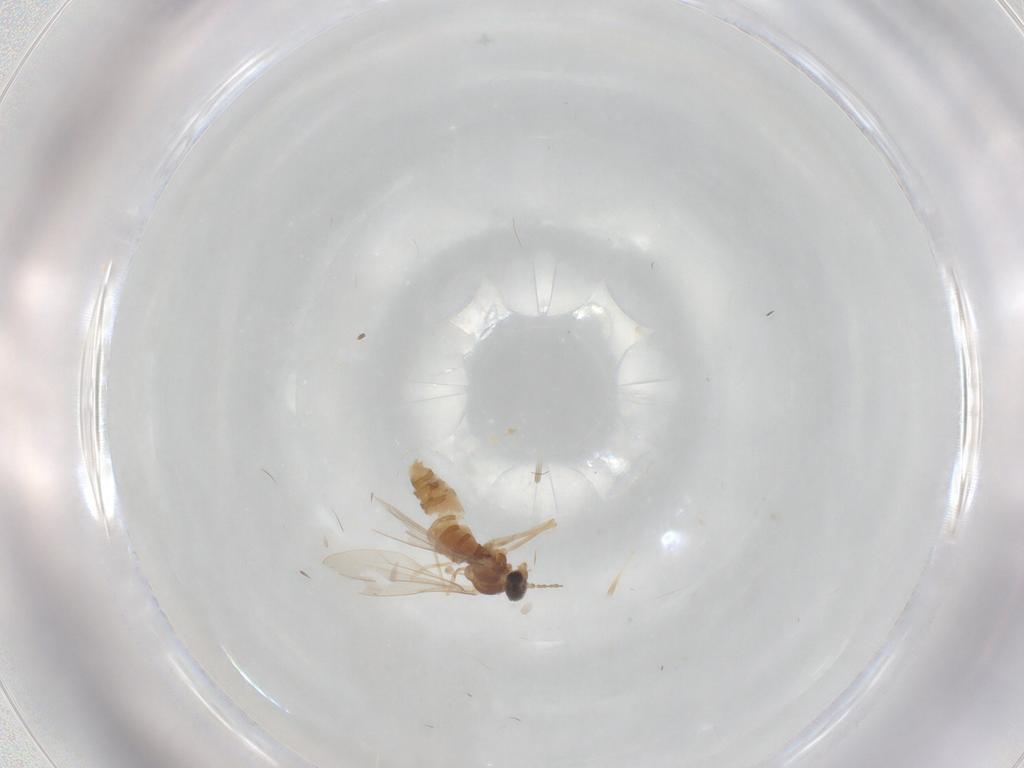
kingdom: Animalia
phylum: Arthropoda
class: Insecta
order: Diptera
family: Cecidomyiidae
